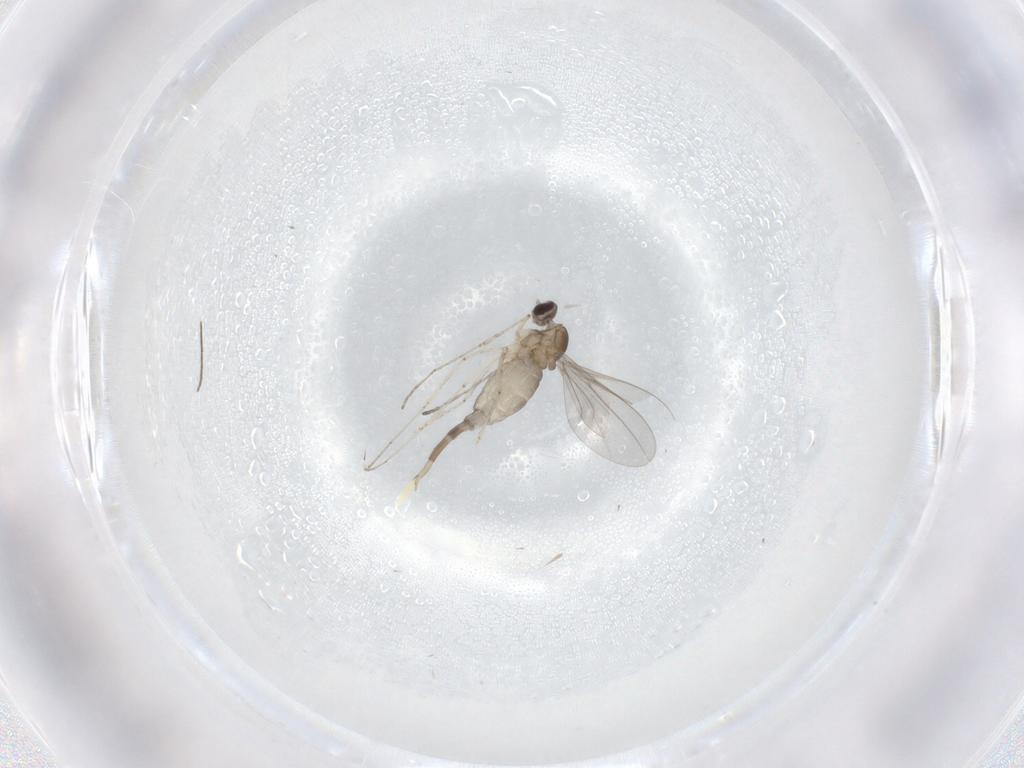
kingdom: Animalia
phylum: Arthropoda
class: Insecta
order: Diptera
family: Cecidomyiidae
